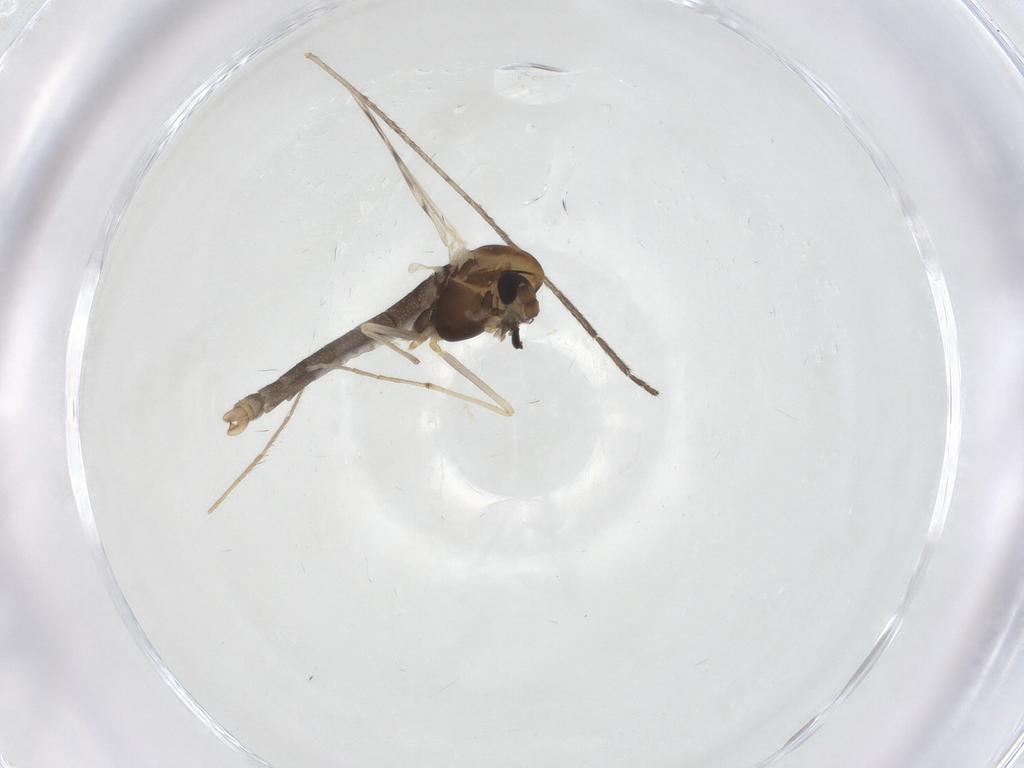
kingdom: Animalia
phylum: Arthropoda
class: Insecta
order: Diptera
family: Chironomidae
